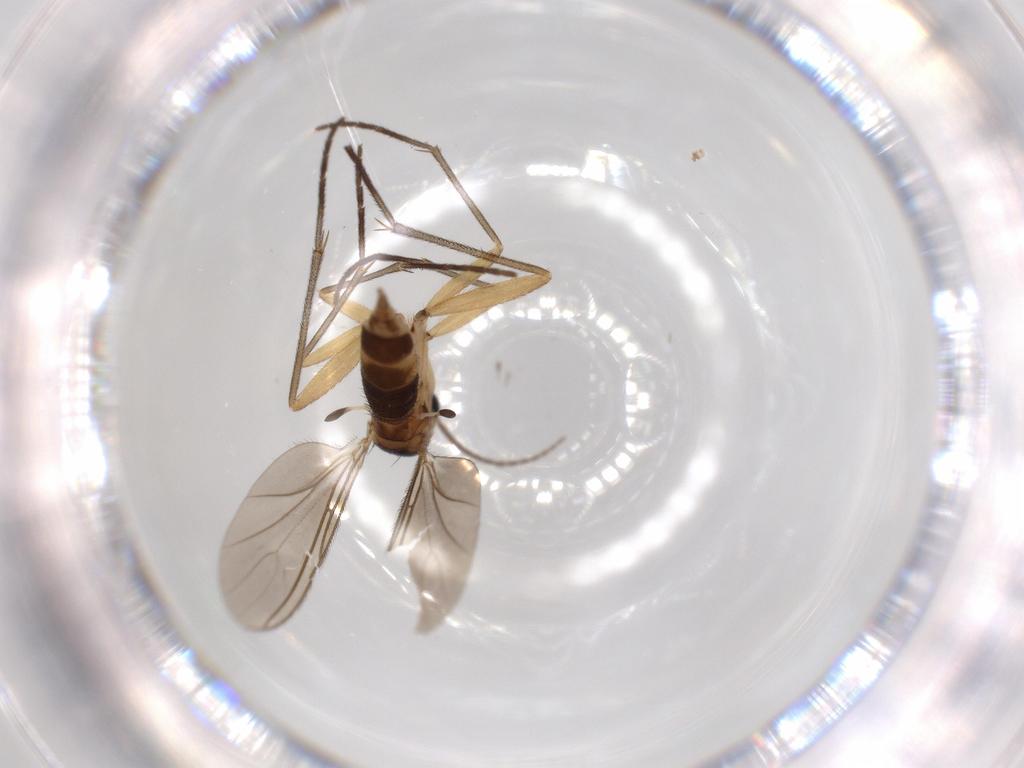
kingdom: Animalia
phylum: Arthropoda
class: Insecta
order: Diptera
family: Sciaridae
